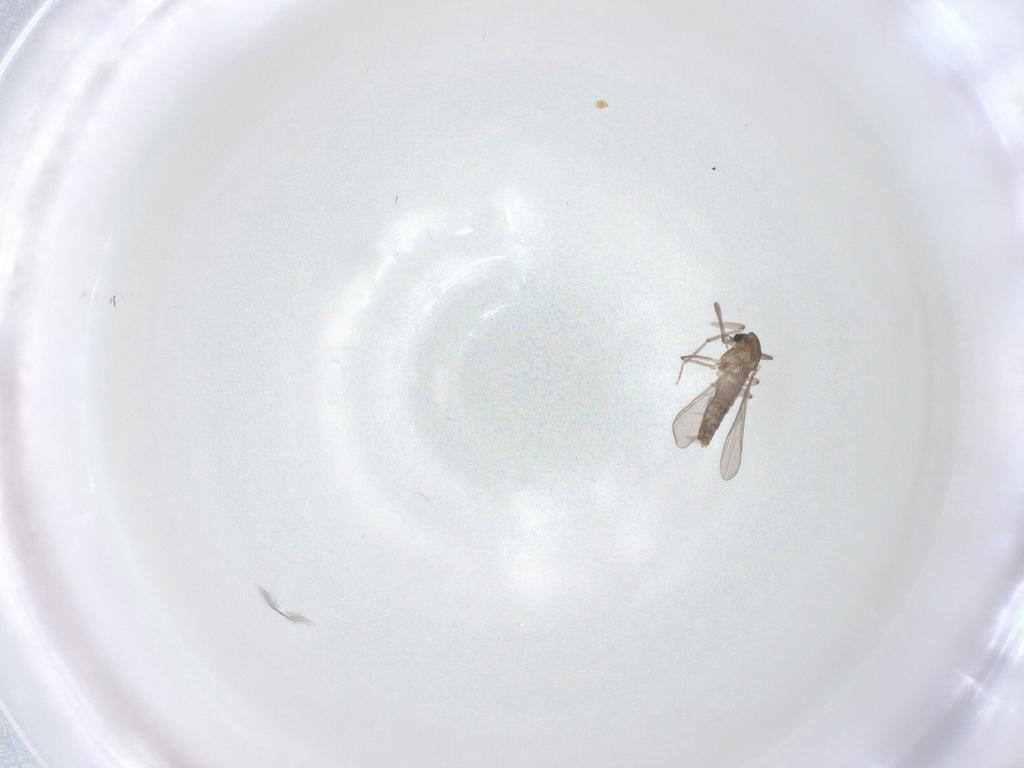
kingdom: Animalia
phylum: Arthropoda
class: Insecta
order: Diptera
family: Chironomidae
